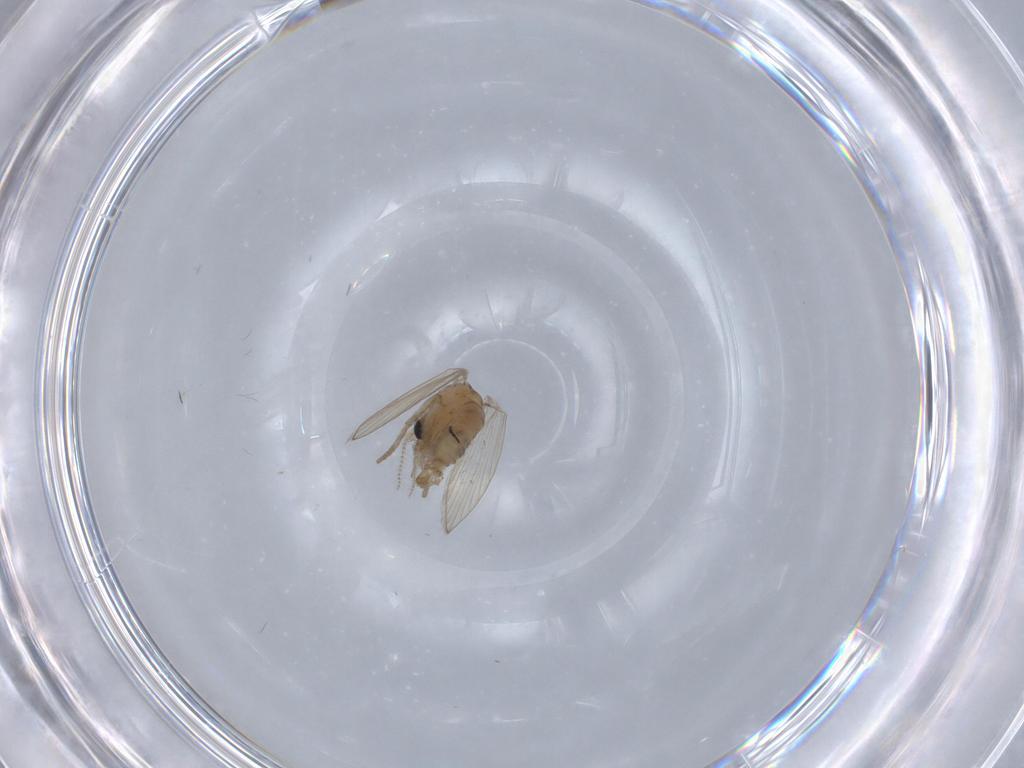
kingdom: Animalia
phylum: Arthropoda
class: Insecta
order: Diptera
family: Psychodidae
